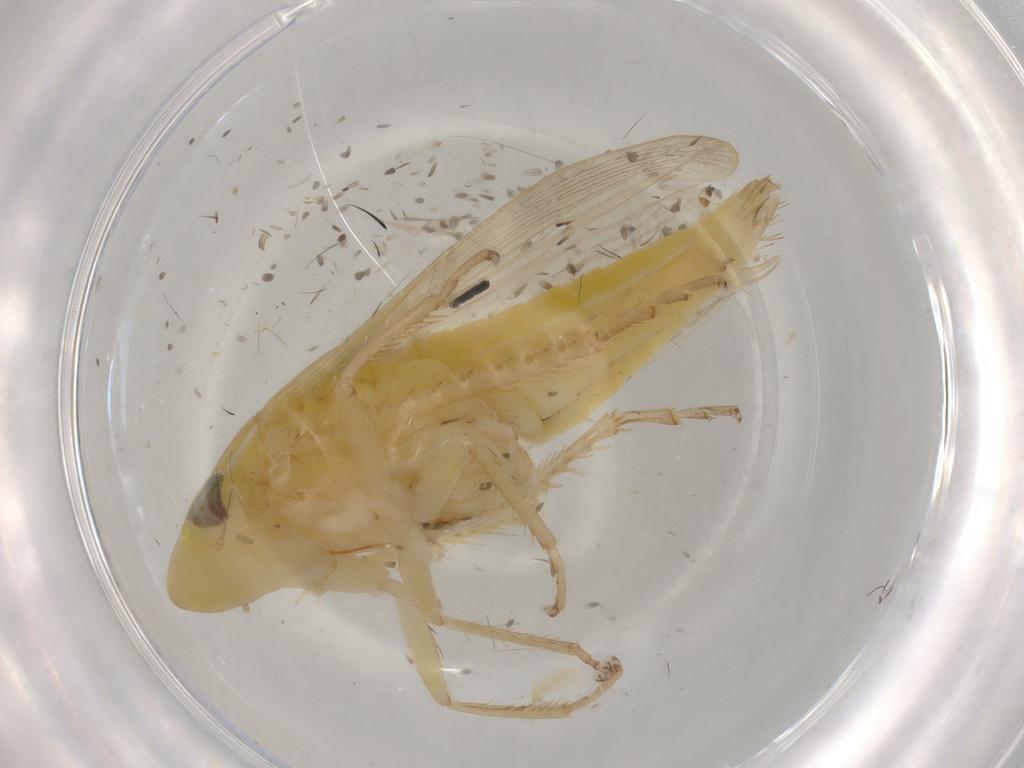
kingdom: Animalia
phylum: Arthropoda
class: Insecta
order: Hemiptera
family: Cicadellidae
